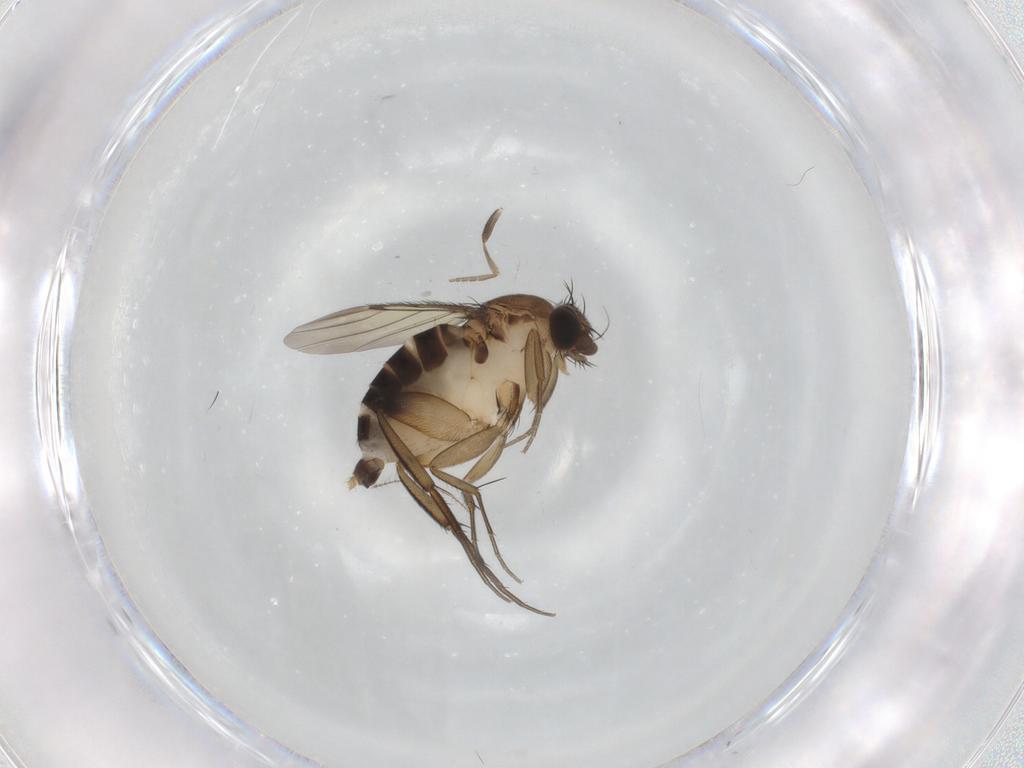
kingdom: Animalia
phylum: Arthropoda
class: Insecta
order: Diptera
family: Phoridae
